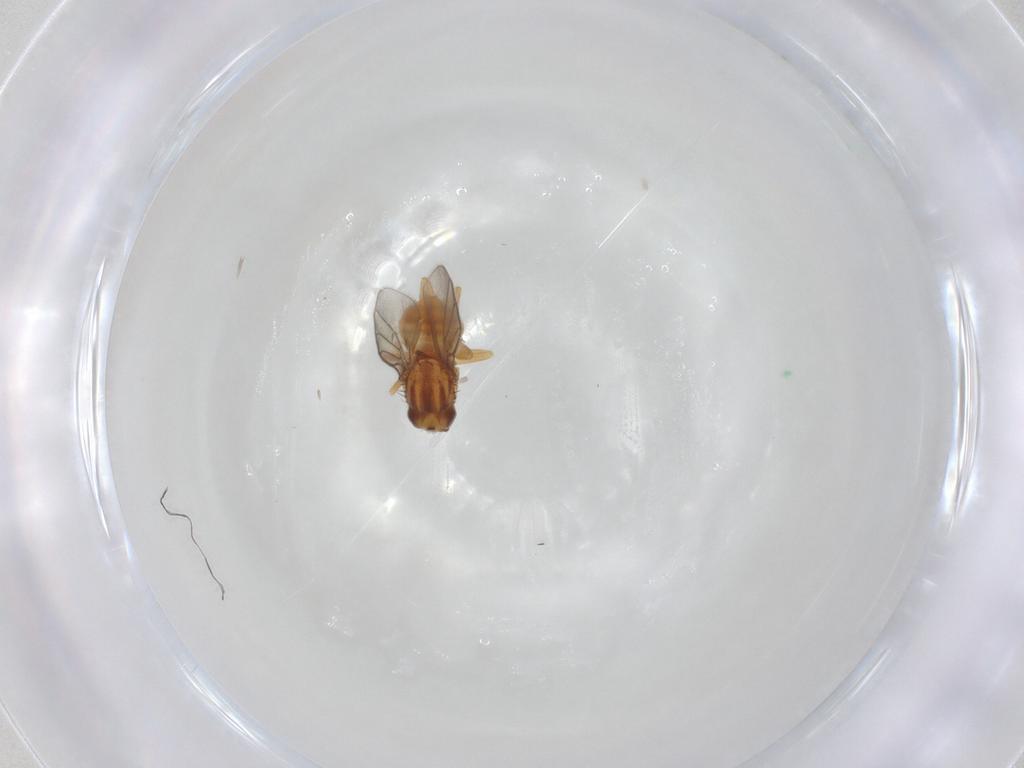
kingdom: Animalia
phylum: Arthropoda
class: Insecta
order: Diptera
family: Chloropidae
